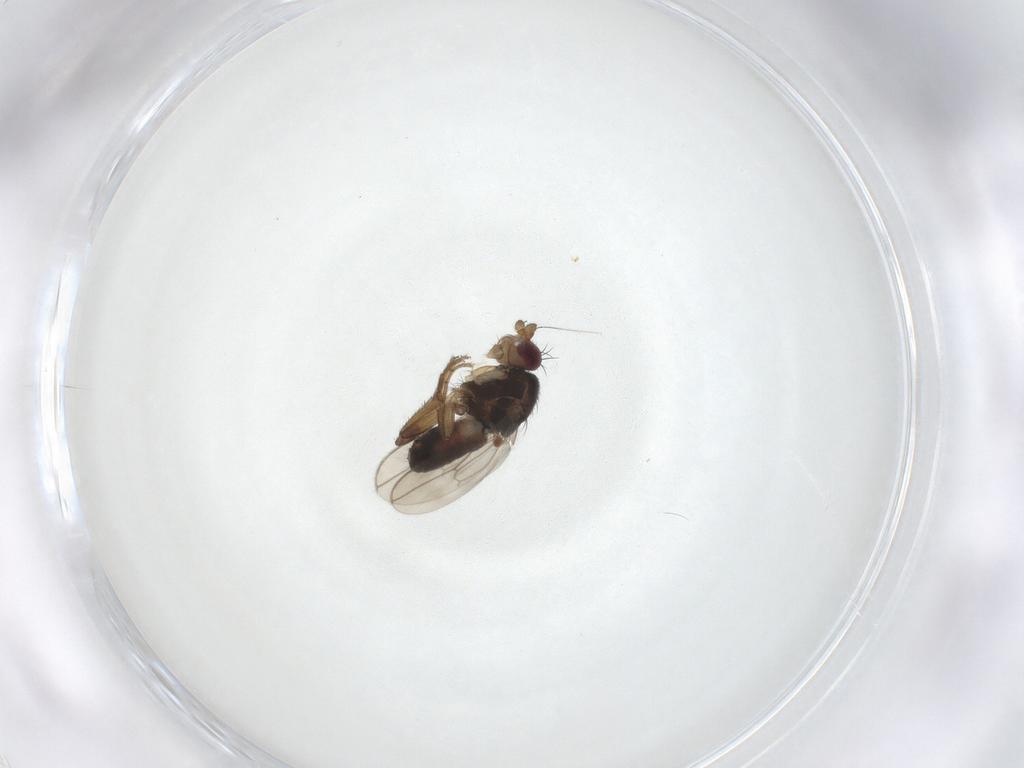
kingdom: Animalia
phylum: Arthropoda
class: Insecta
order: Diptera
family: Sphaeroceridae
